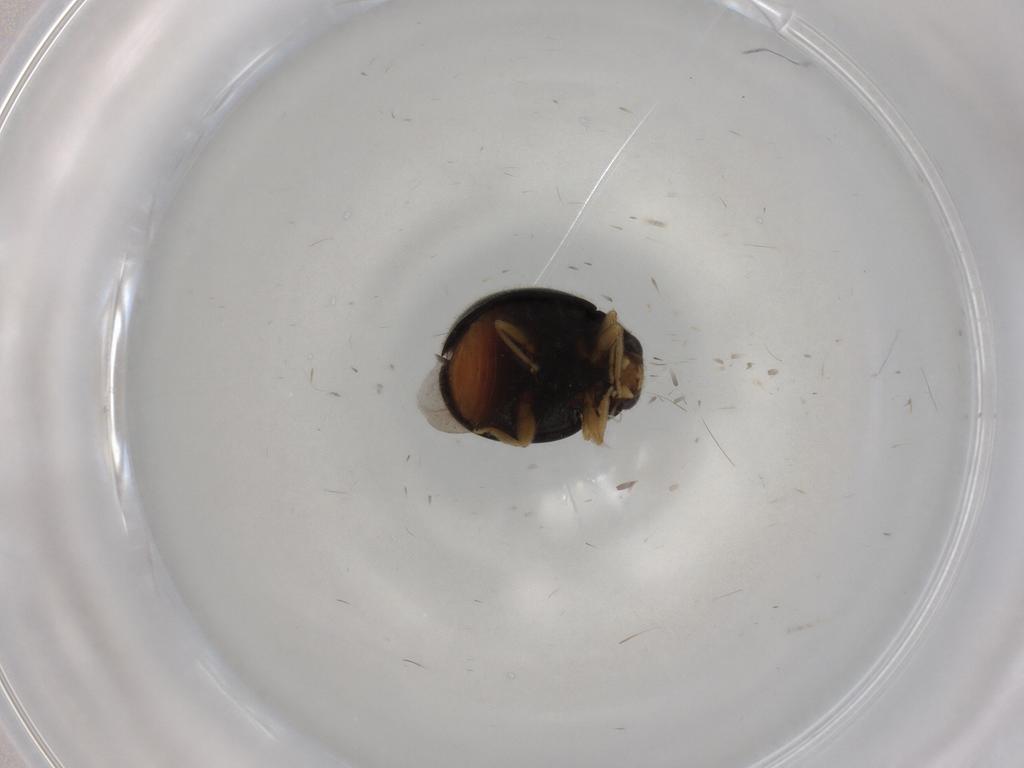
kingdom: Animalia
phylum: Arthropoda
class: Insecta
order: Coleoptera
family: Coccinellidae
